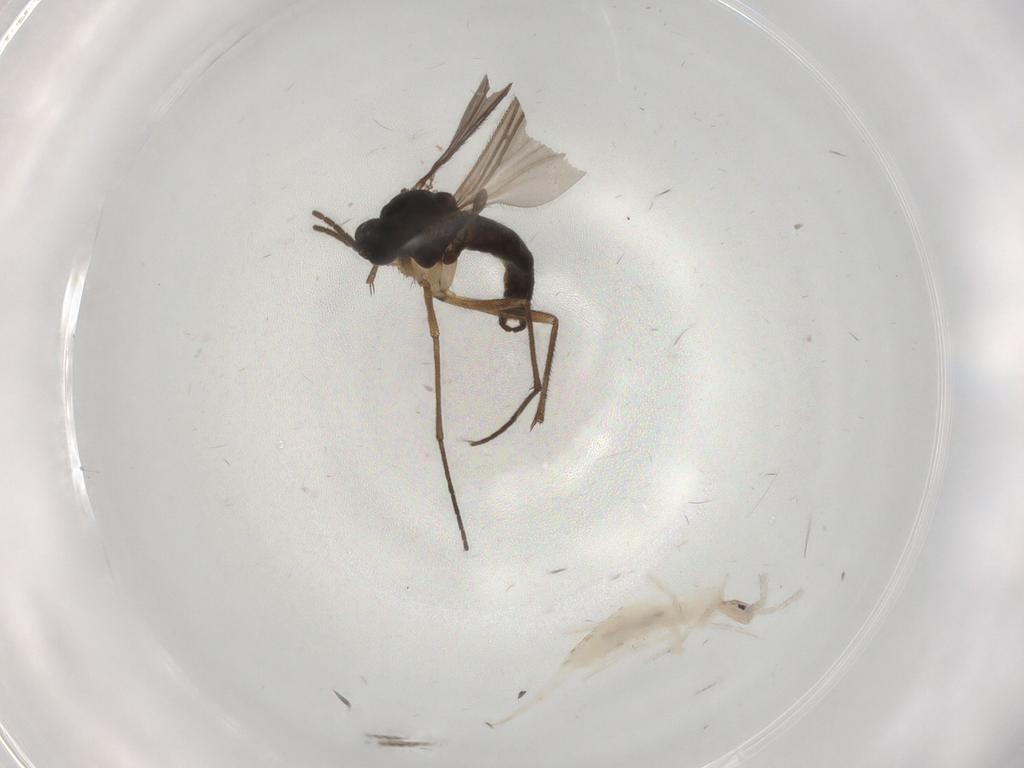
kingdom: Animalia
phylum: Arthropoda
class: Insecta
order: Diptera
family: Sciaridae
